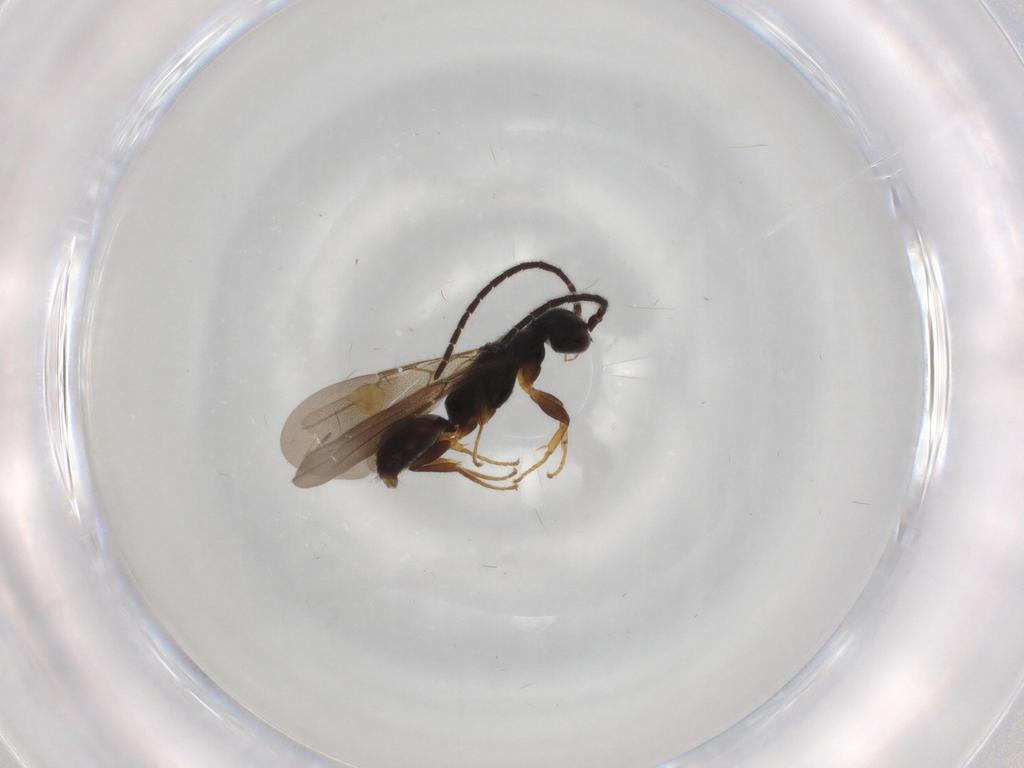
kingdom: Animalia
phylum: Arthropoda
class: Insecta
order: Hymenoptera
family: Bethylidae
